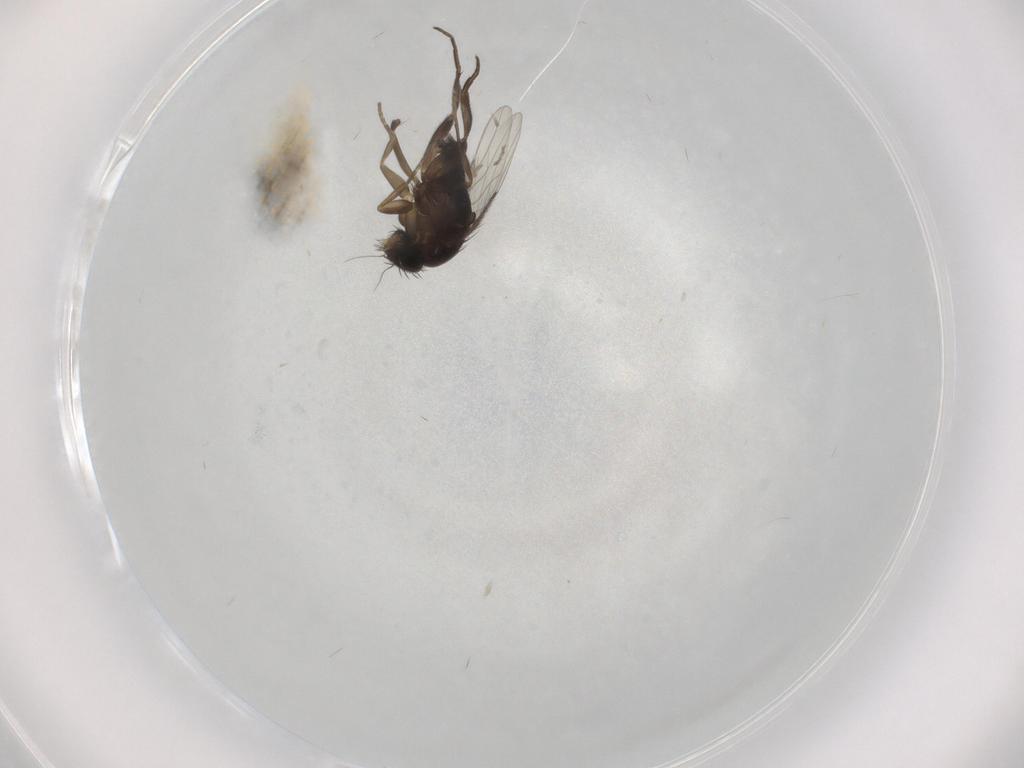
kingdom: Animalia
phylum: Arthropoda
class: Insecta
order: Diptera
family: Phoridae
